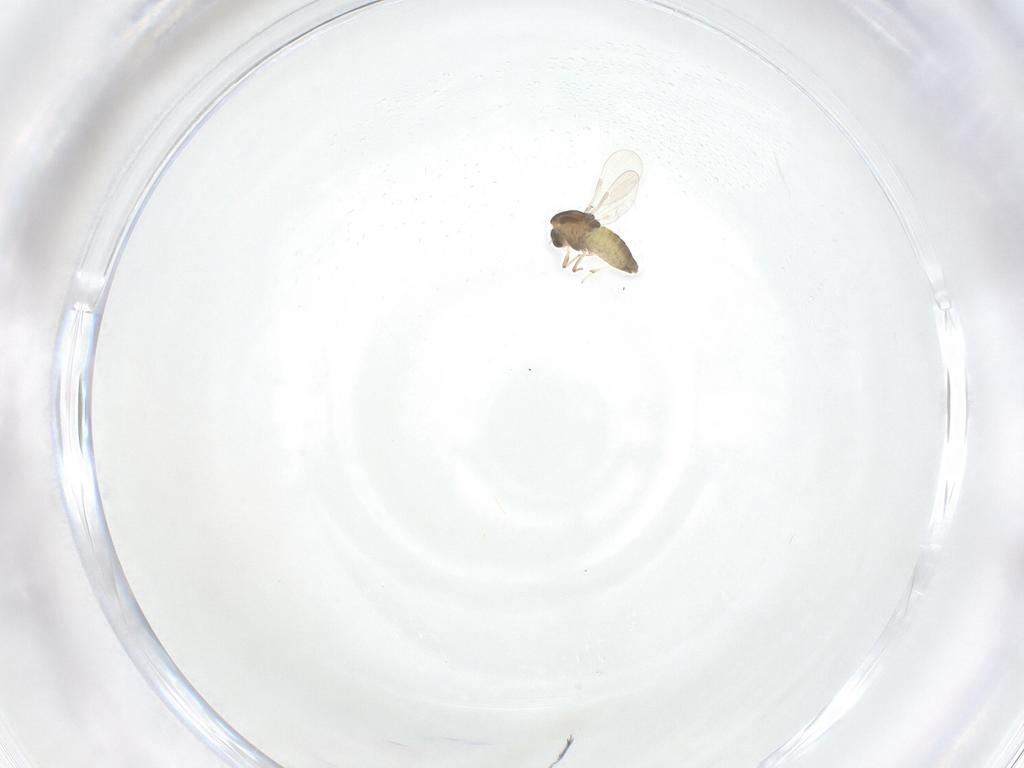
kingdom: Animalia
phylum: Arthropoda
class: Insecta
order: Diptera
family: Chironomidae
